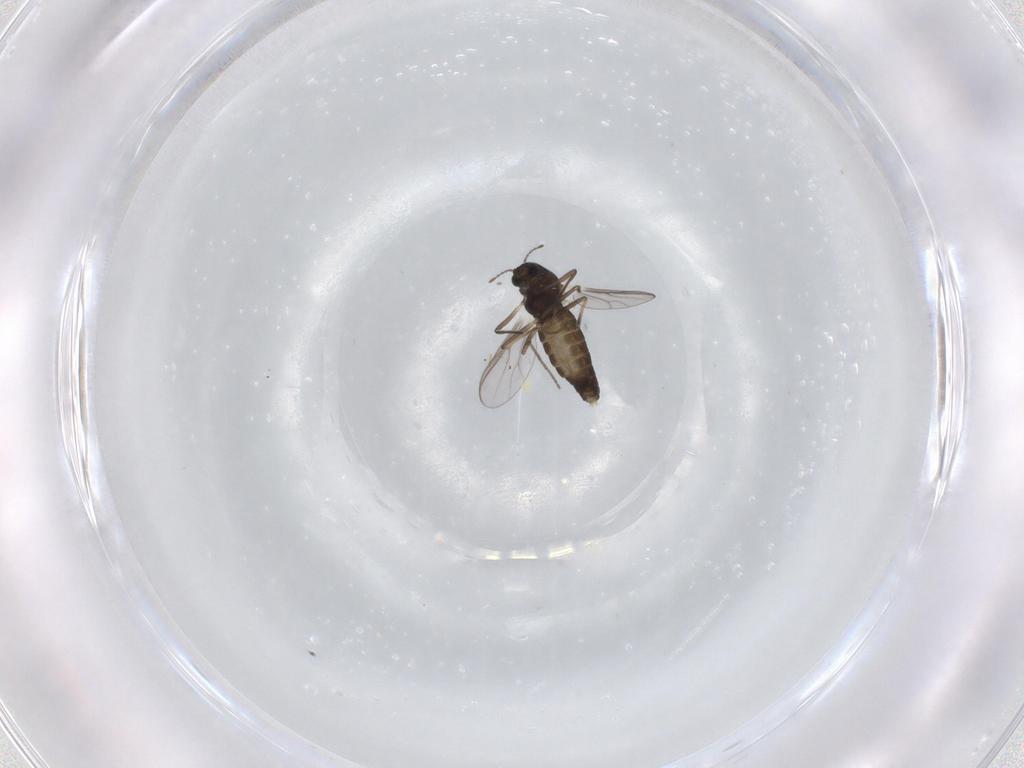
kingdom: Animalia
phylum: Arthropoda
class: Insecta
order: Diptera
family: Chironomidae
